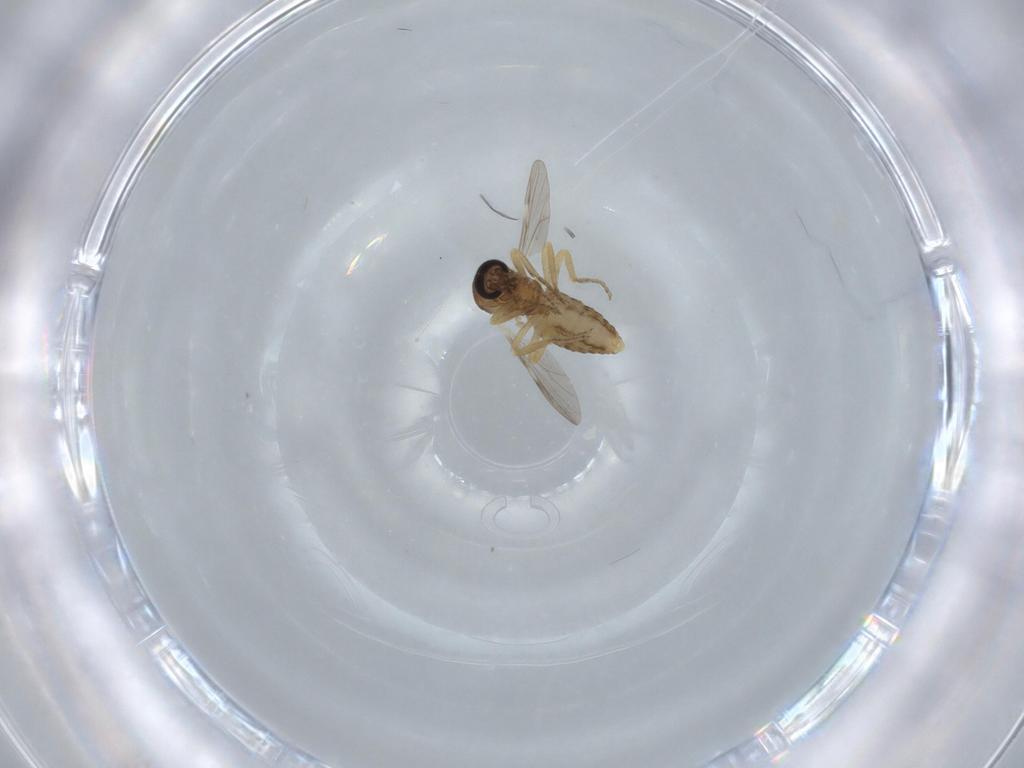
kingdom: Animalia
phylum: Arthropoda
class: Insecta
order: Diptera
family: Ceratopogonidae
